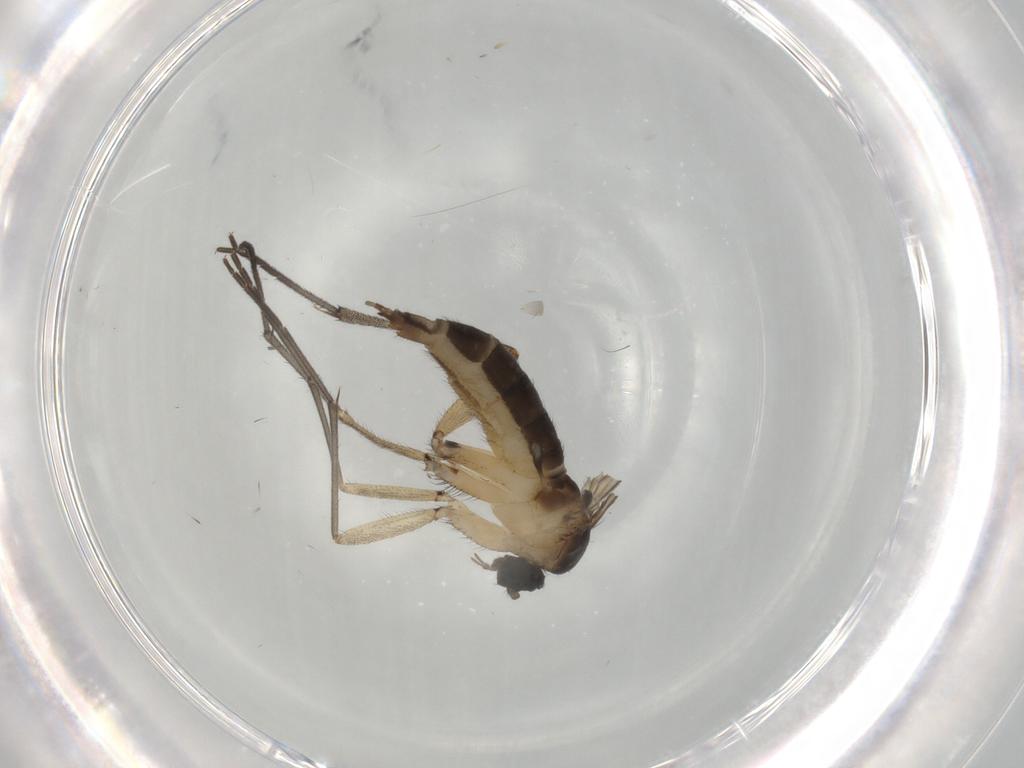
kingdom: Animalia
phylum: Arthropoda
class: Insecta
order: Diptera
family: Sciaridae
